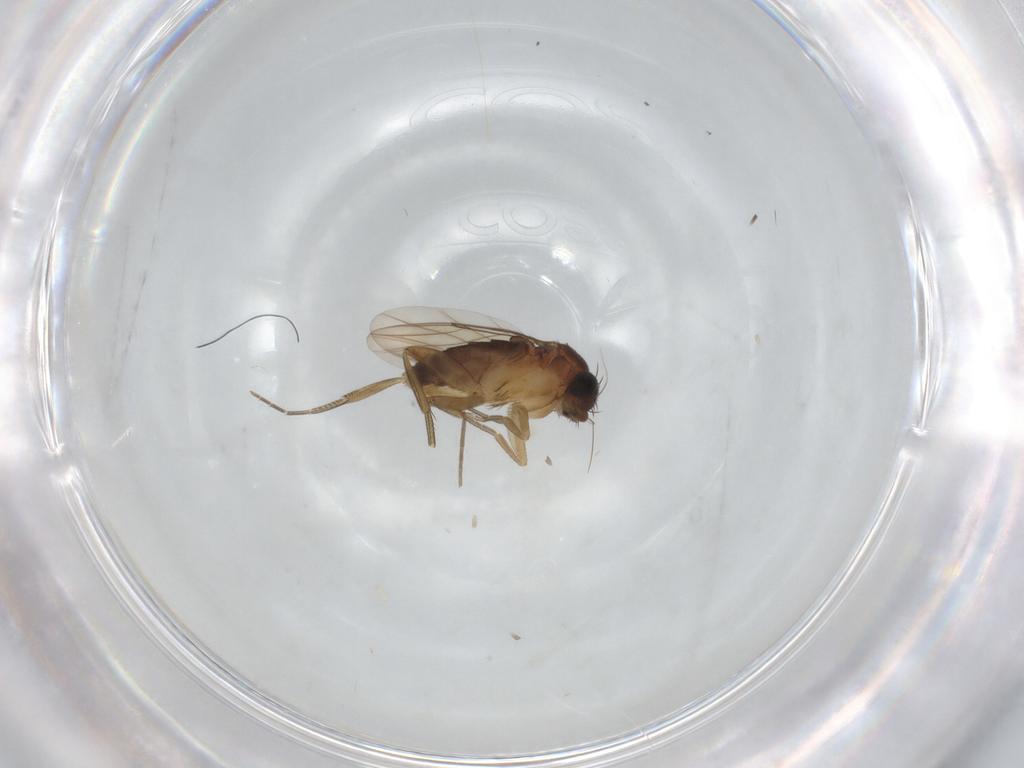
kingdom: Animalia
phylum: Arthropoda
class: Insecta
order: Diptera
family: Phoridae
